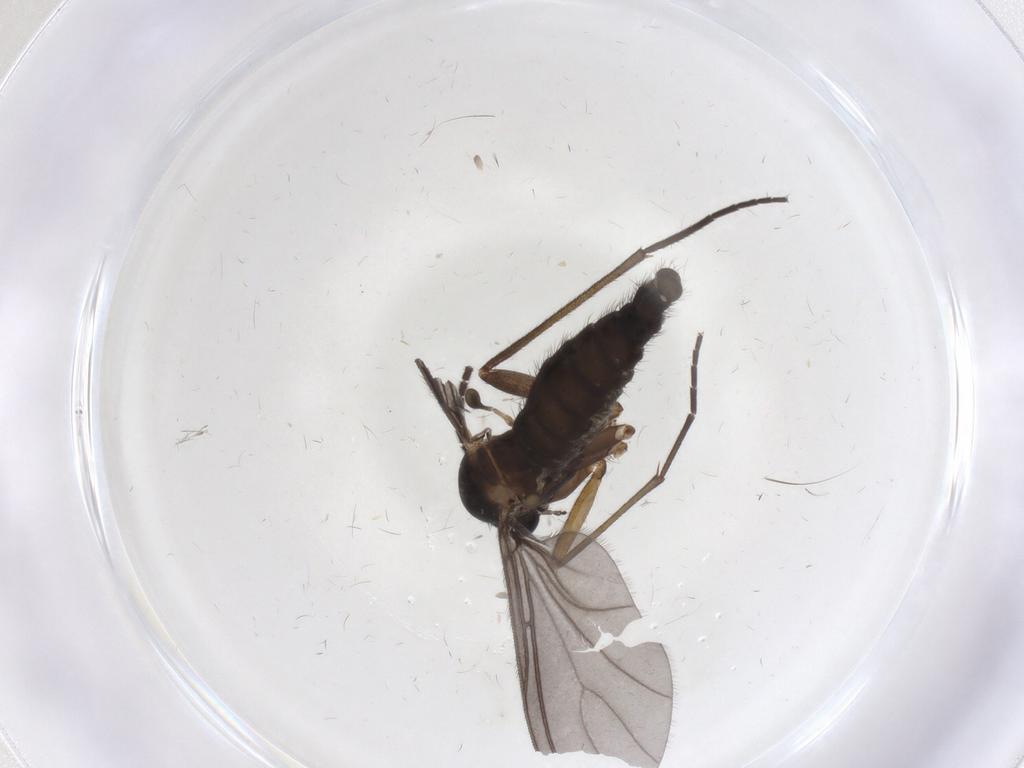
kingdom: Animalia
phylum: Arthropoda
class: Insecta
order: Diptera
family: Sciaridae
